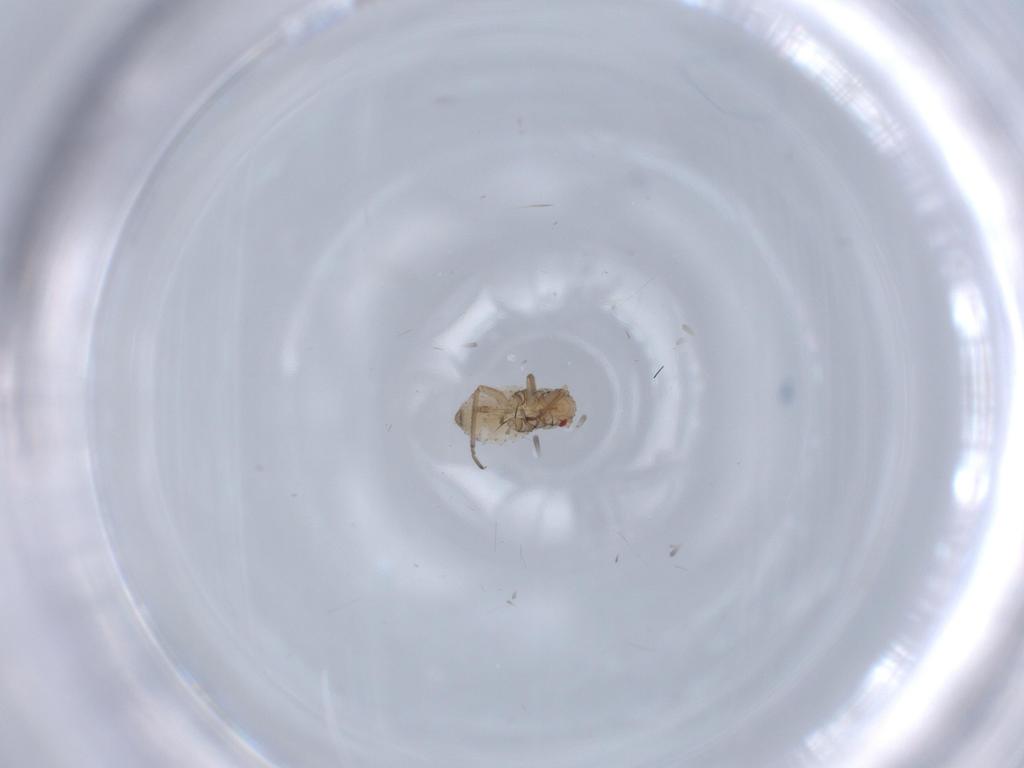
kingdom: Animalia
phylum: Arthropoda
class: Insecta
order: Hemiptera
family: Aphididae
